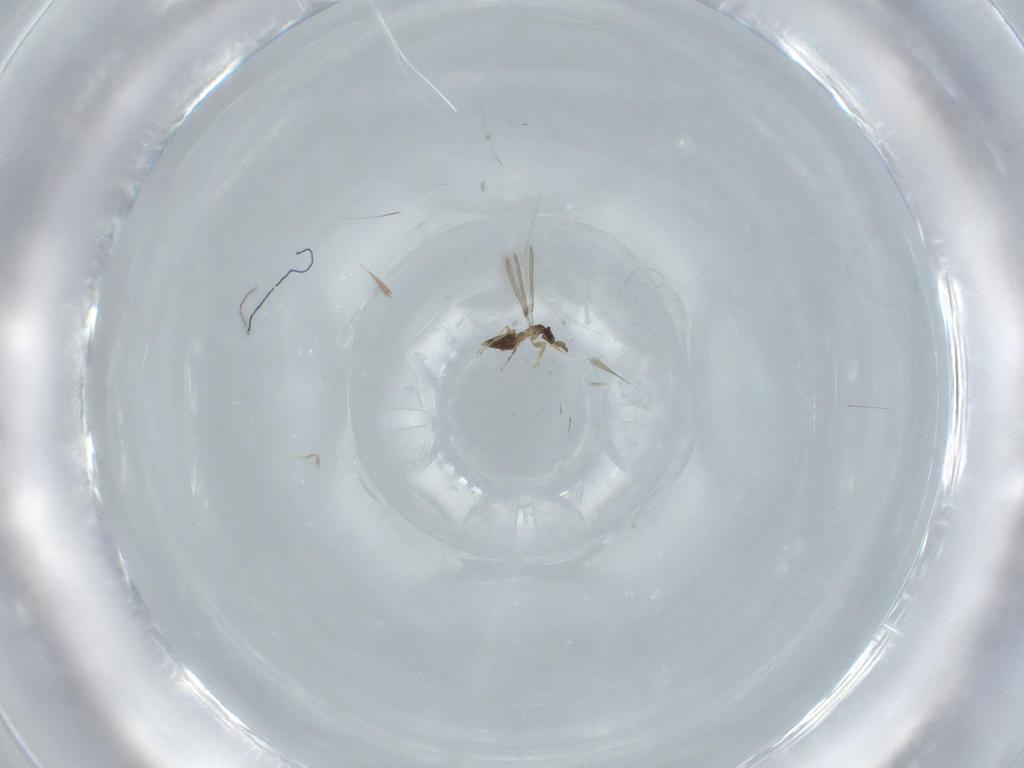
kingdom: Animalia
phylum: Arthropoda
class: Insecta
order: Hymenoptera
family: Mymaridae
